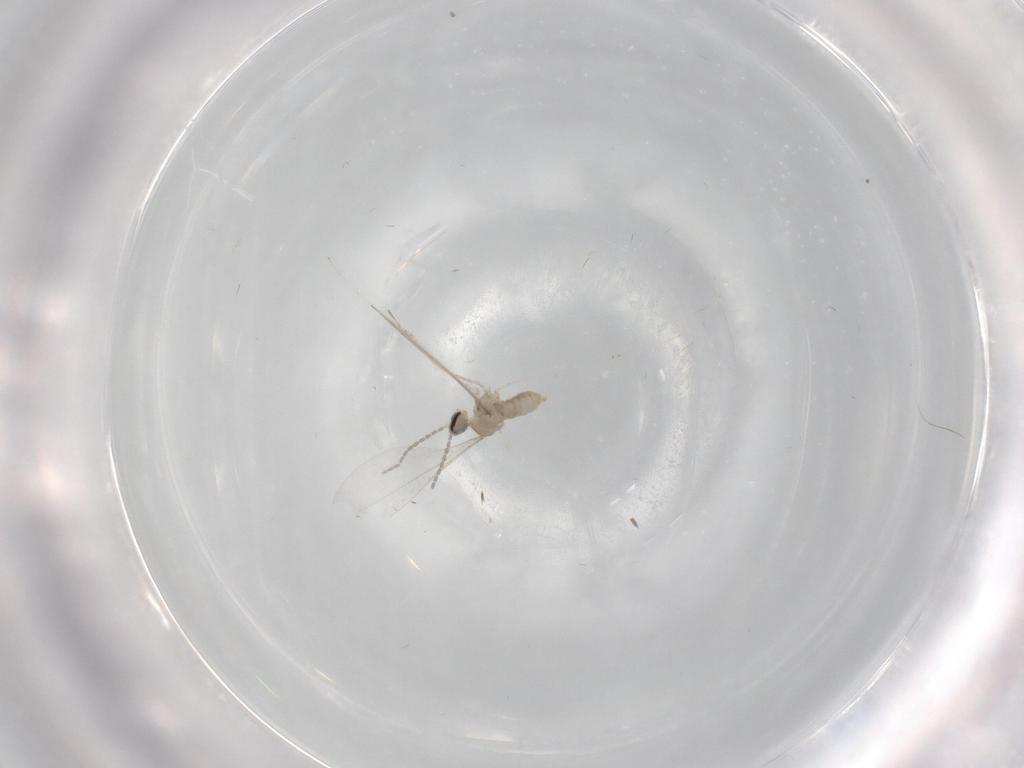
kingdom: Animalia
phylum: Arthropoda
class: Insecta
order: Diptera
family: Cecidomyiidae
